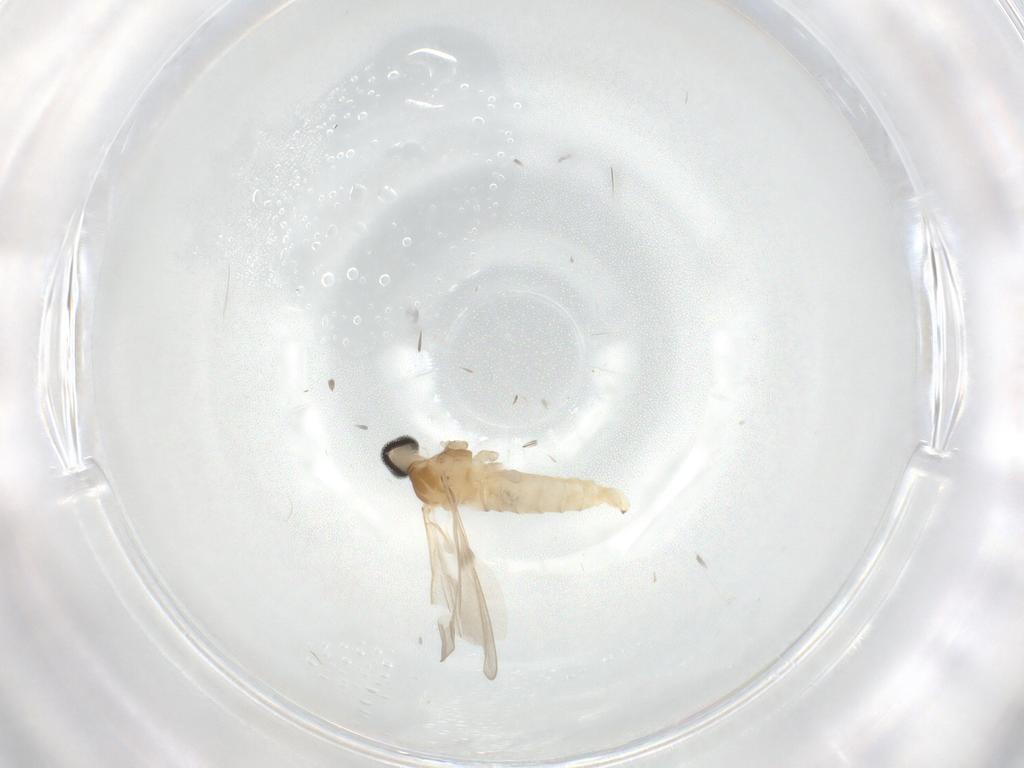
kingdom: Animalia
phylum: Arthropoda
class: Insecta
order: Diptera
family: Cecidomyiidae
